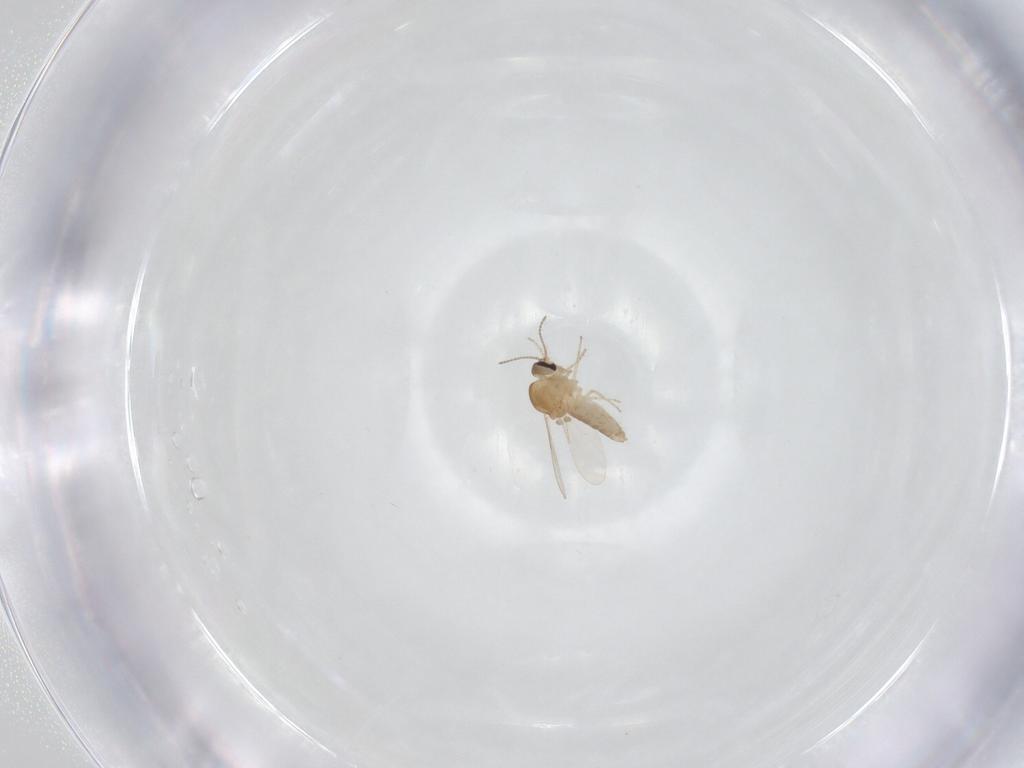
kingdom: Animalia
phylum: Arthropoda
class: Insecta
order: Diptera
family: Ceratopogonidae
